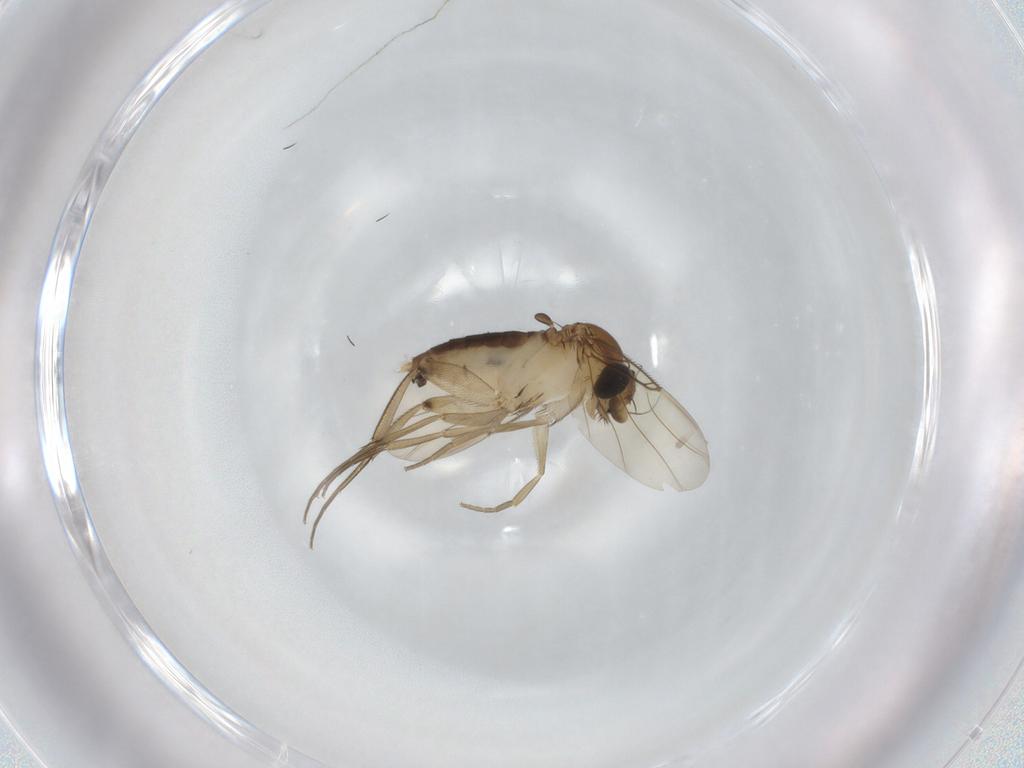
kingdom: Animalia
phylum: Arthropoda
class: Insecta
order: Diptera
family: Phoridae
